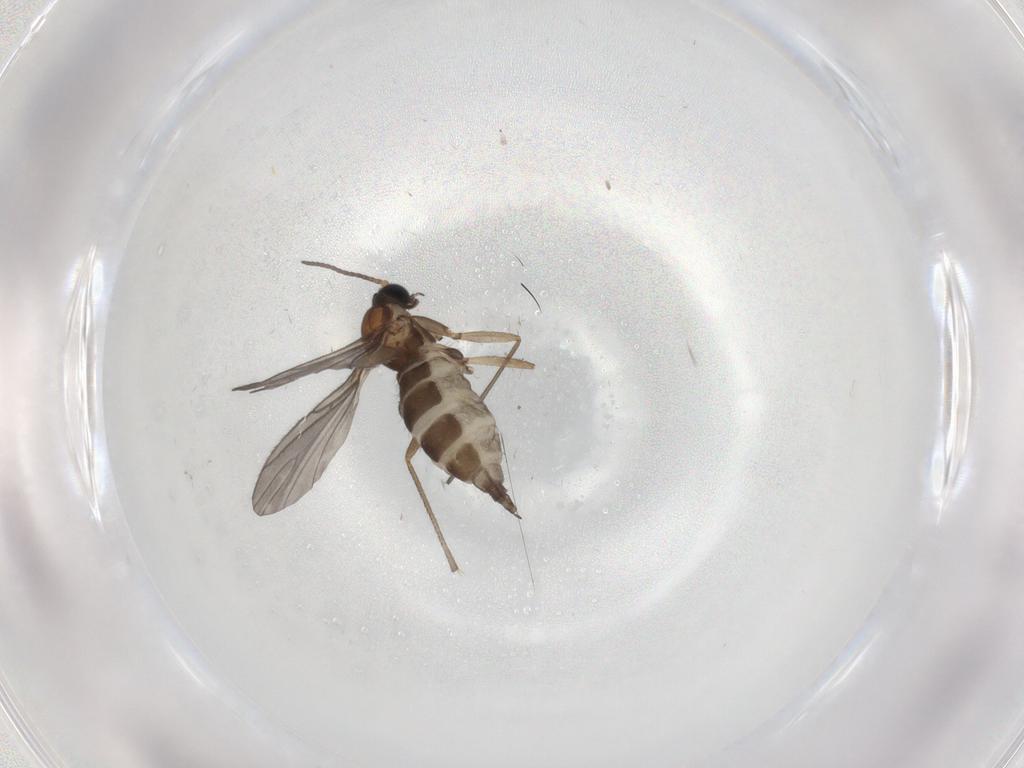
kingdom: Animalia
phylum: Arthropoda
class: Insecta
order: Diptera
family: Sciaridae
